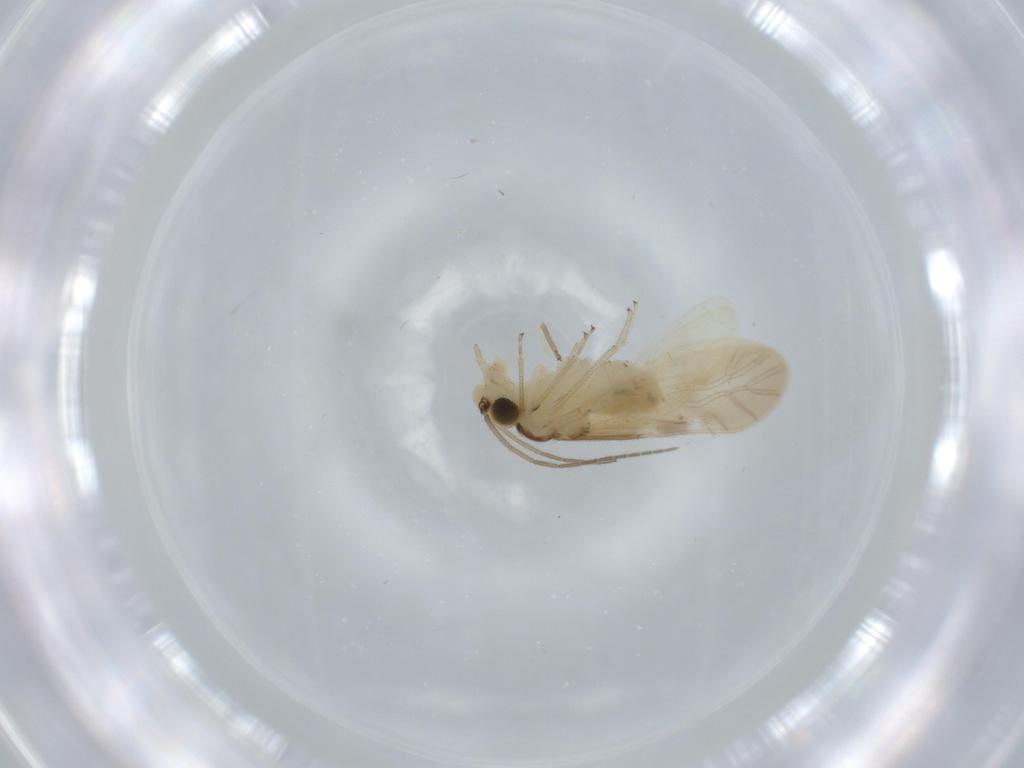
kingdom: Animalia
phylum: Arthropoda
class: Insecta
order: Psocodea
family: Caeciliusidae
